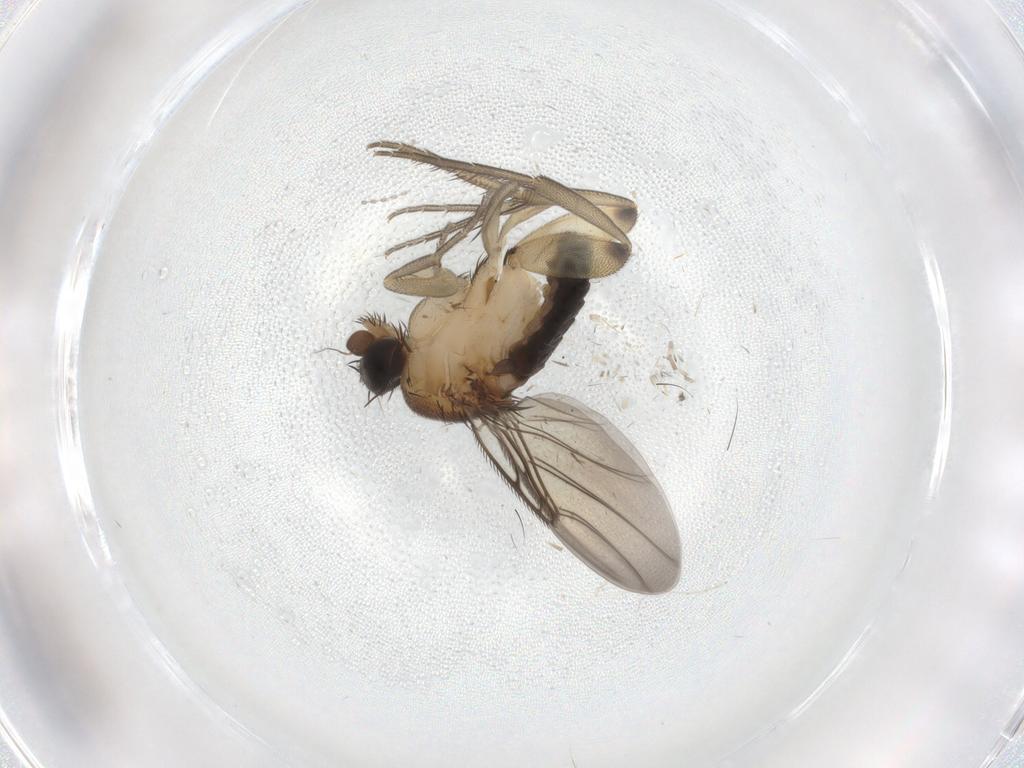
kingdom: Animalia
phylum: Arthropoda
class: Insecta
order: Diptera
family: Phoridae
